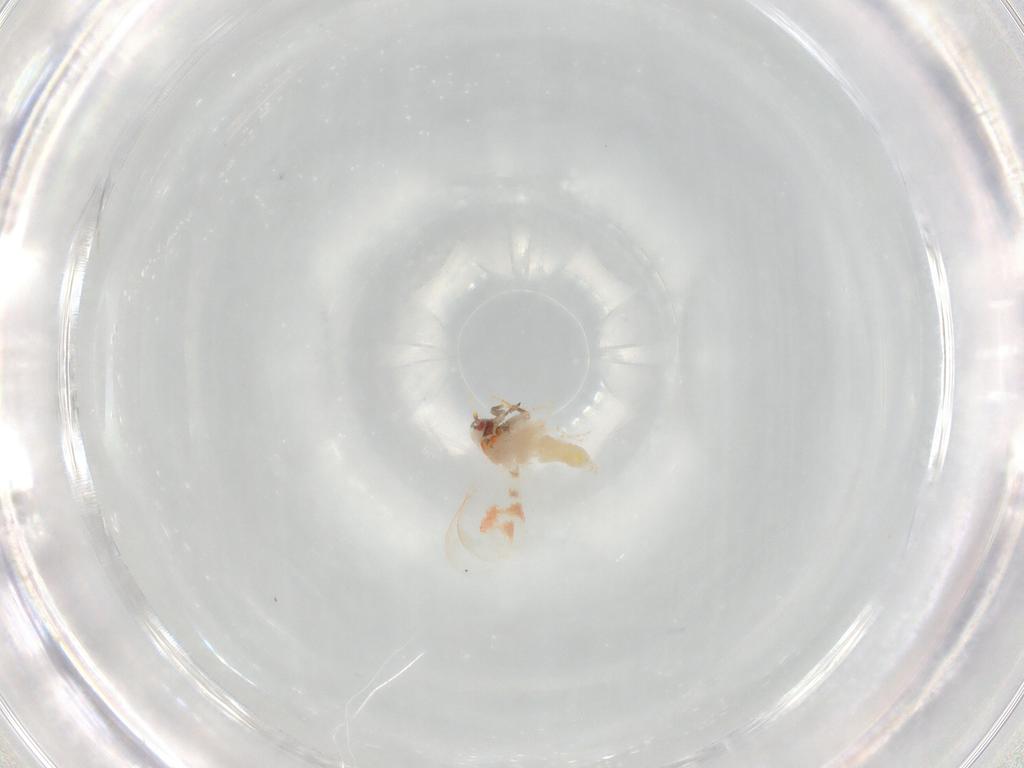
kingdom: Animalia
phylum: Arthropoda
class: Insecta
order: Hemiptera
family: Aleyrodidae
